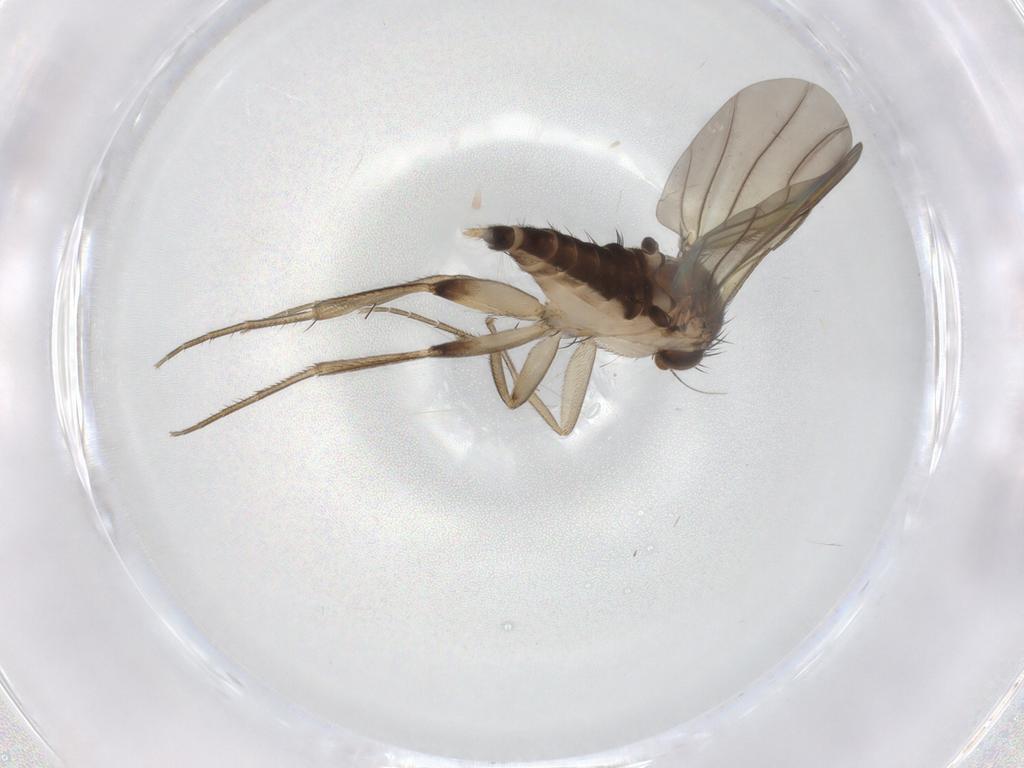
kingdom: Animalia
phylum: Arthropoda
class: Insecta
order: Diptera
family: Phoridae
